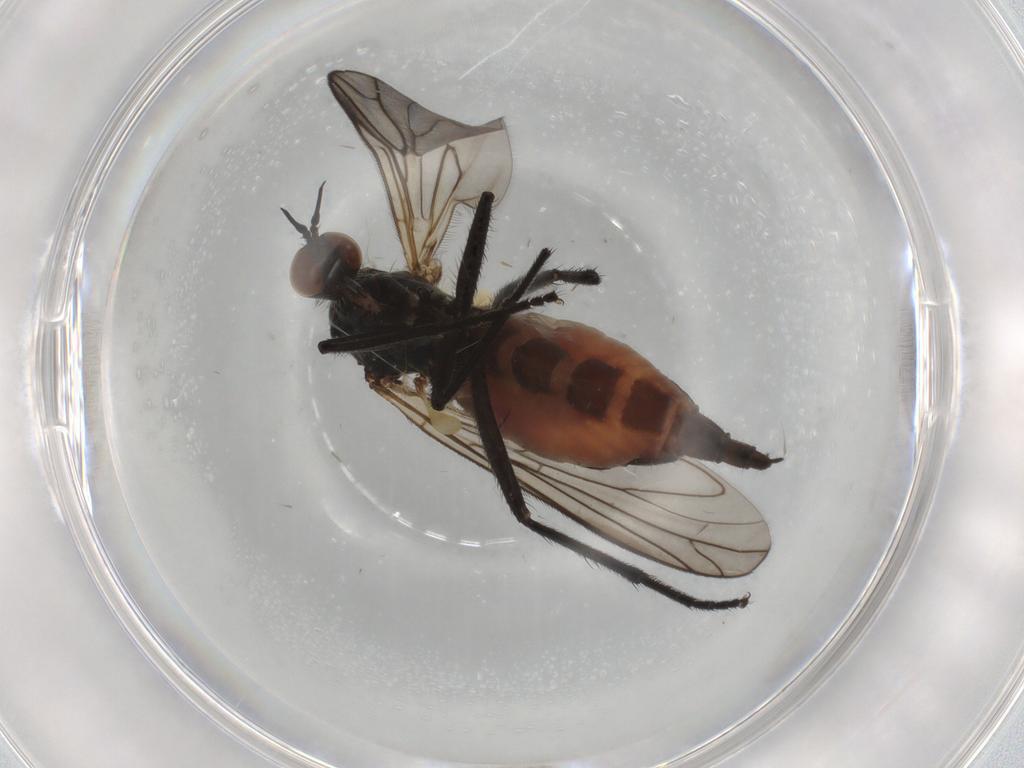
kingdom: Animalia
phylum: Arthropoda
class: Insecta
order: Diptera
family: Empididae
